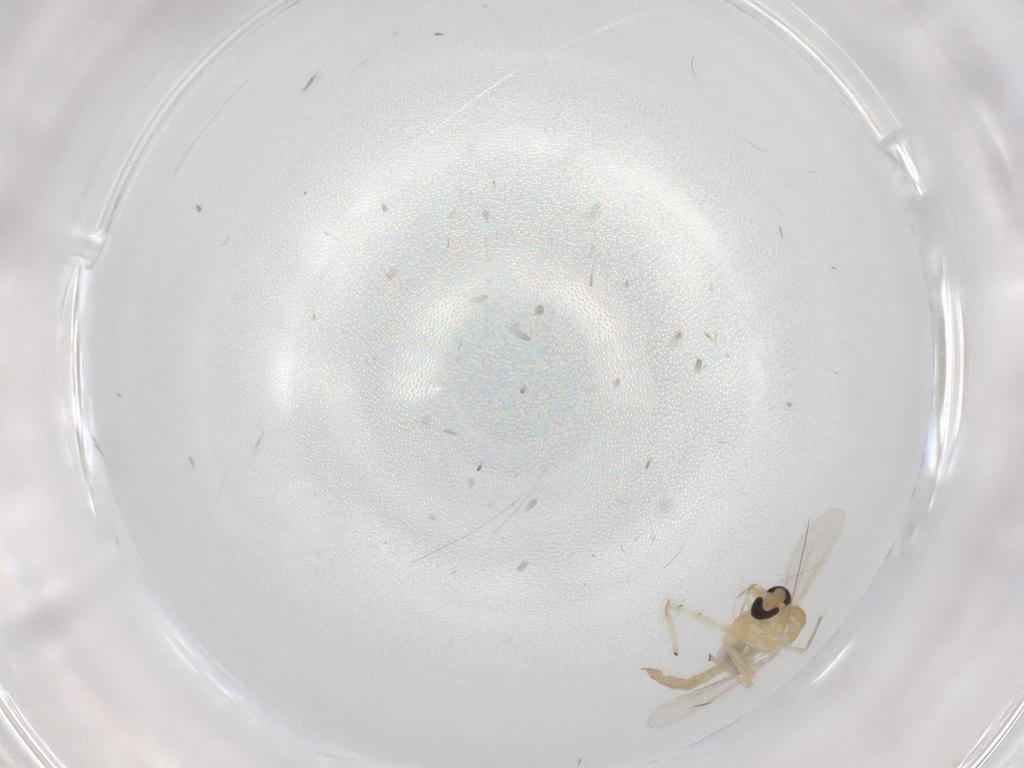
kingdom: Animalia
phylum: Arthropoda
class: Insecta
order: Diptera
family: Chironomidae
